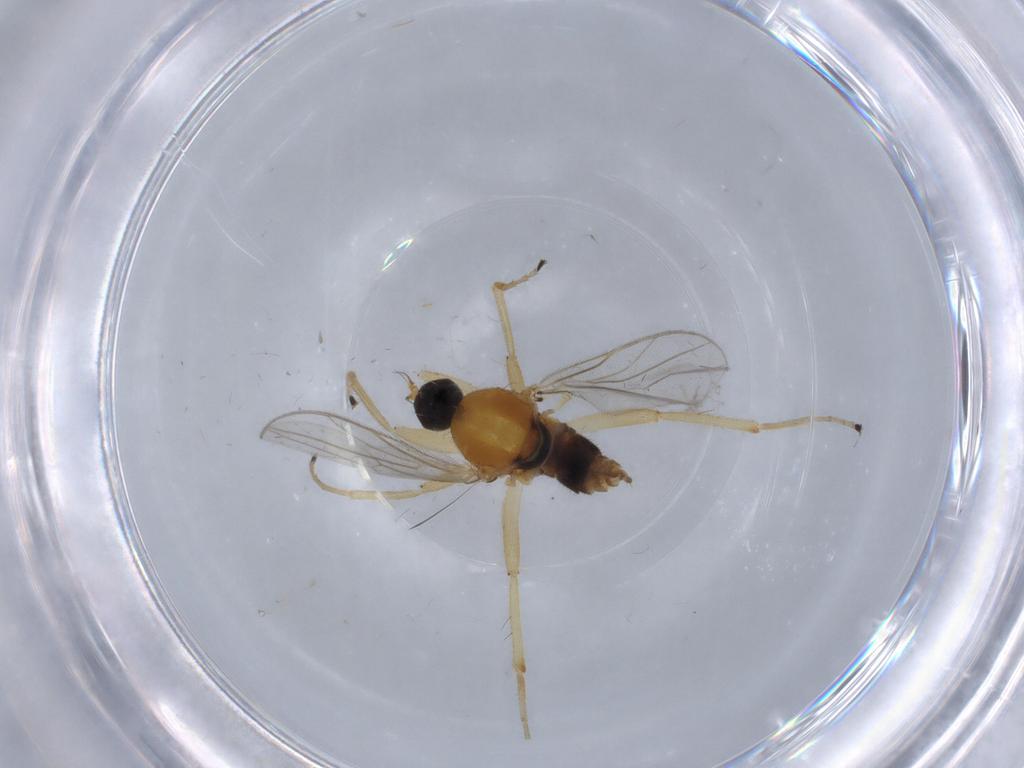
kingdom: Animalia
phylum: Arthropoda
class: Insecta
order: Diptera
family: Hybotidae
